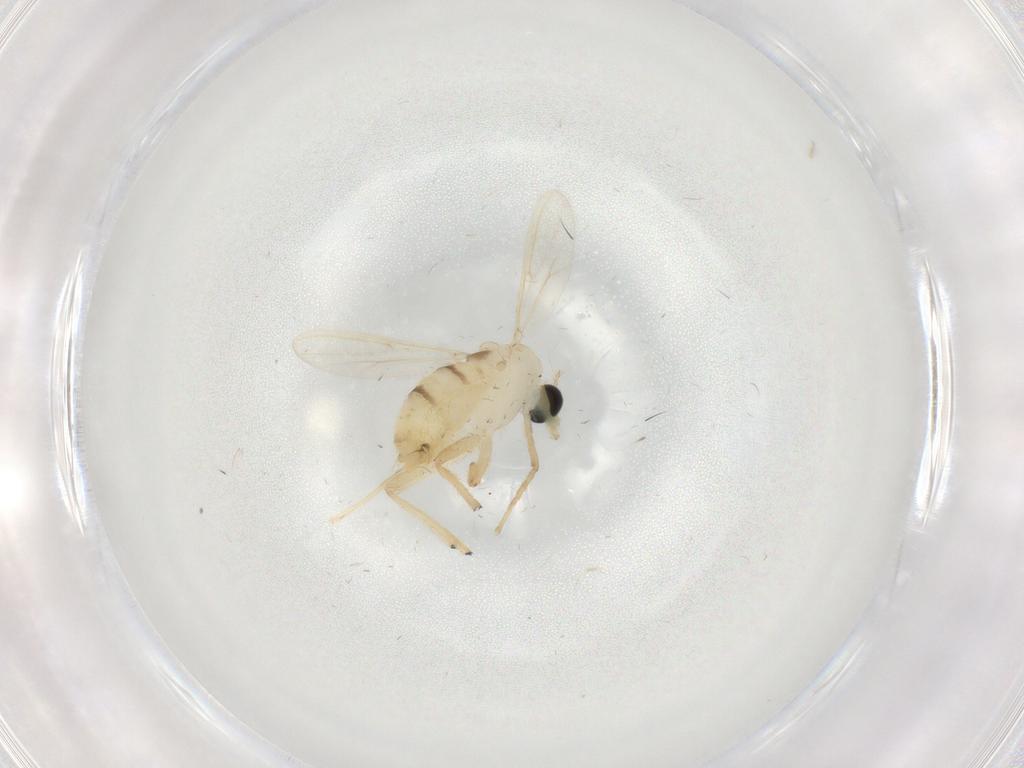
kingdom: Animalia
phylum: Arthropoda
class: Insecta
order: Diptera
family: Chironomidae
